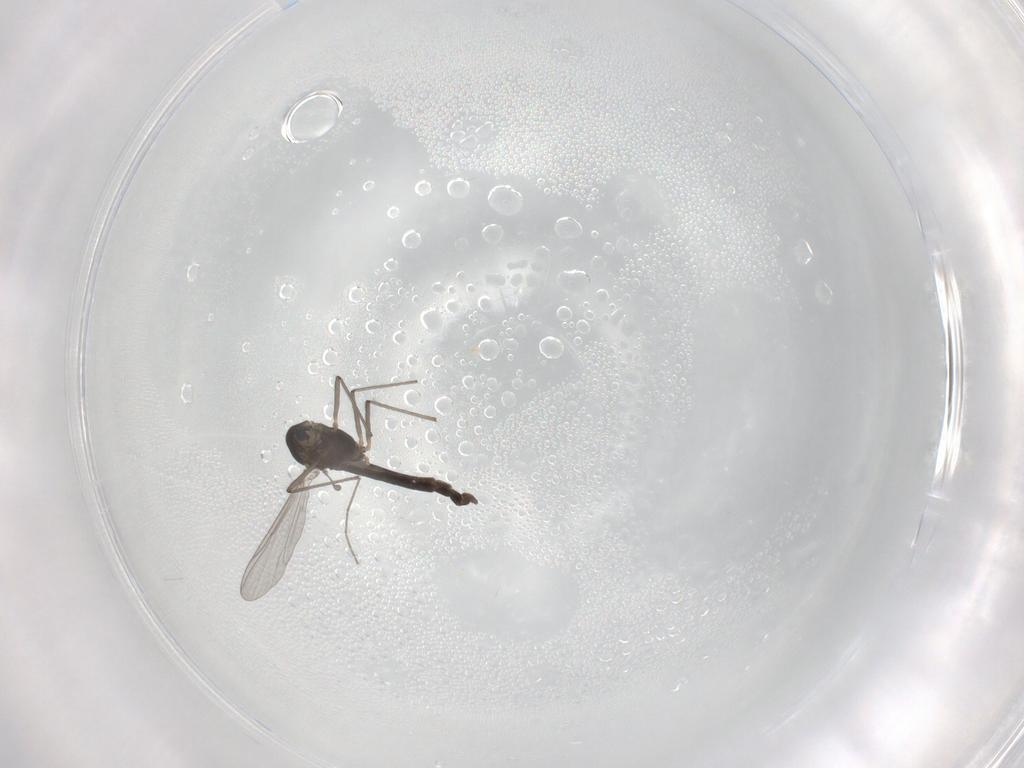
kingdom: Animalia
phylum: Arthropoda
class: Insecta
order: Diptera
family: Chironomidae
